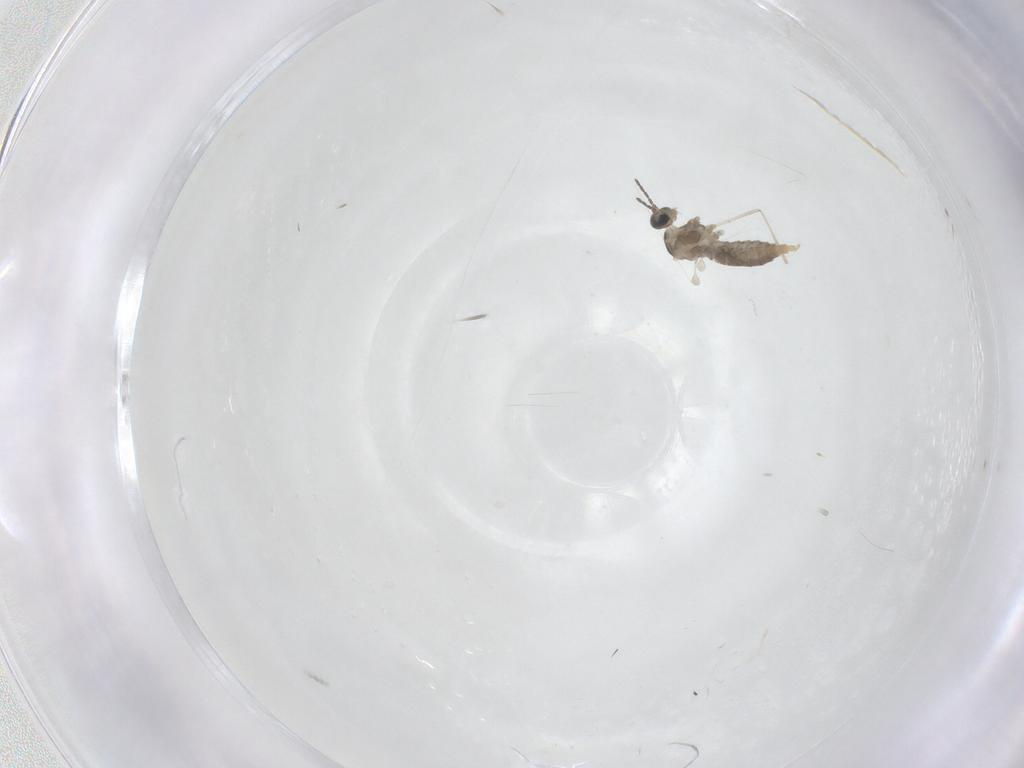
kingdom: Animalia
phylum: Arthropoda
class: Insecta
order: Diptera
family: Cecidomyiidae
